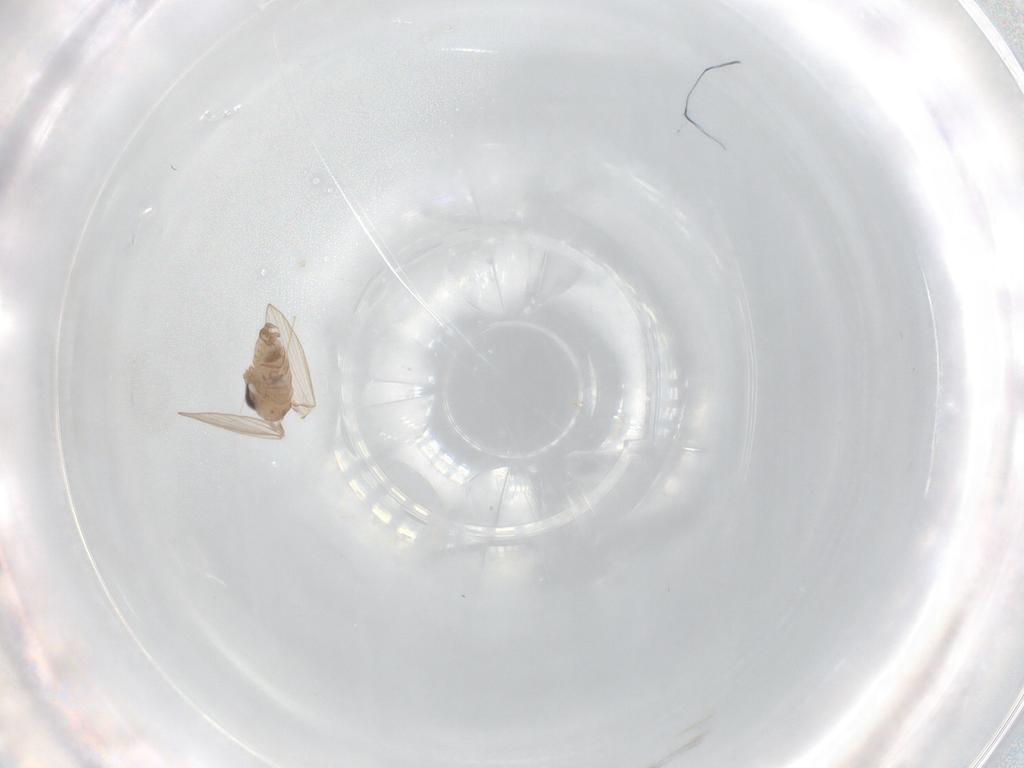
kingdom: Animalia
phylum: Arthropoda
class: Insecta
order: Diptera
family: Psychodidae
